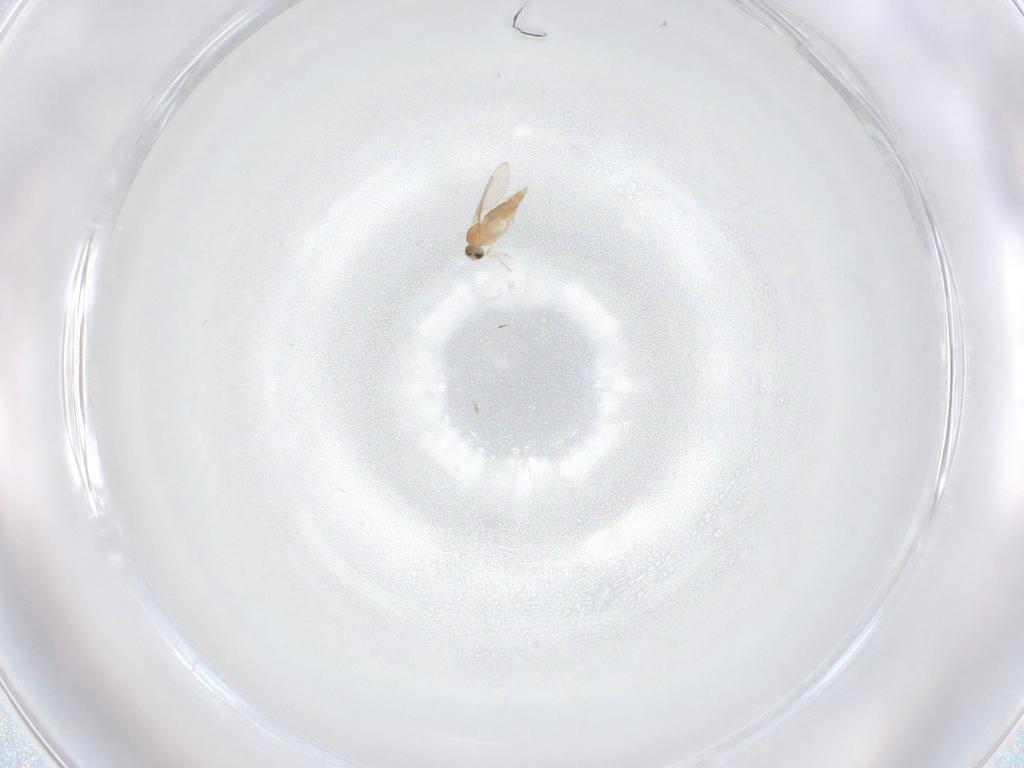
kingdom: Animalia
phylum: Arthropoda
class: Insecta
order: Diptera
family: Cecidomyiidae
